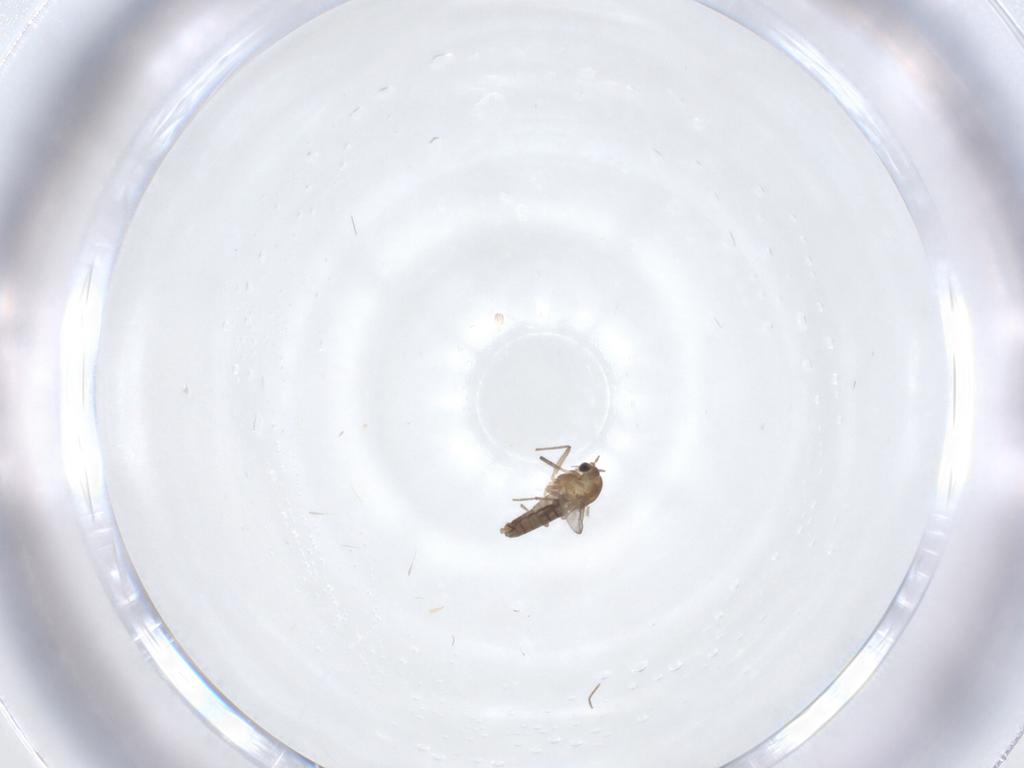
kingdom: Animalia
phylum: Arthropoda
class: Insecta
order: Diptera
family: Chironomidae
